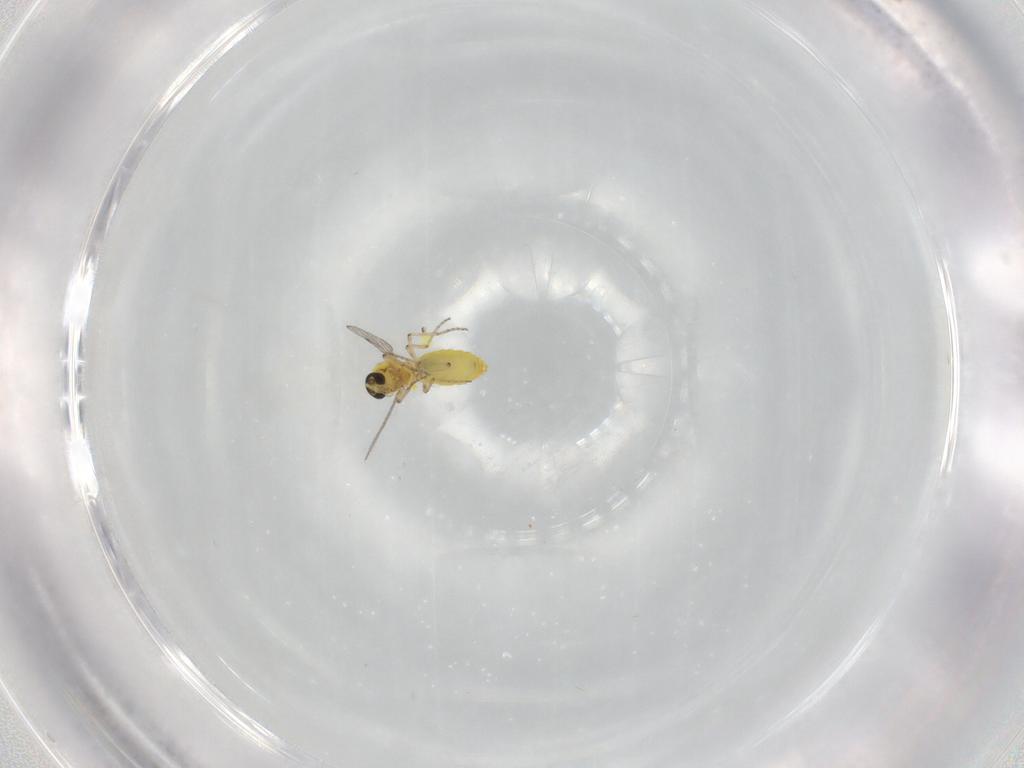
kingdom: Animalia
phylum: Arthropoda
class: Insecta
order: Diptera
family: Ceratopogonidae
